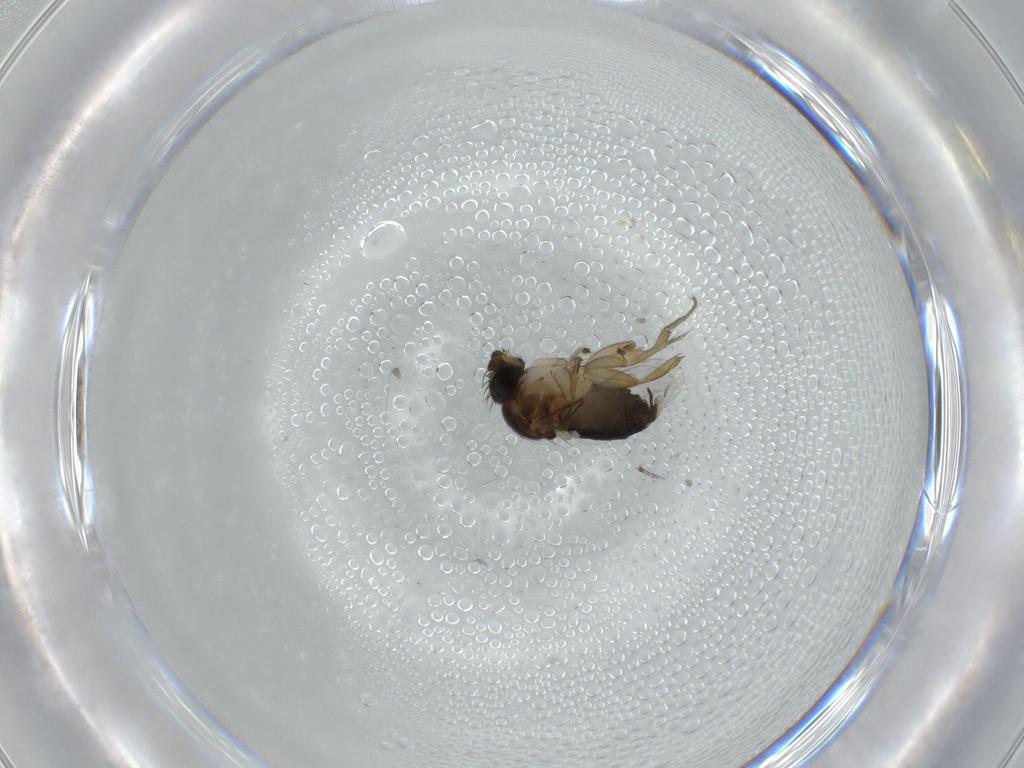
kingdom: Animalia
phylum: Arthropoda
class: Insecta
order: Diptera
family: Phoridae
